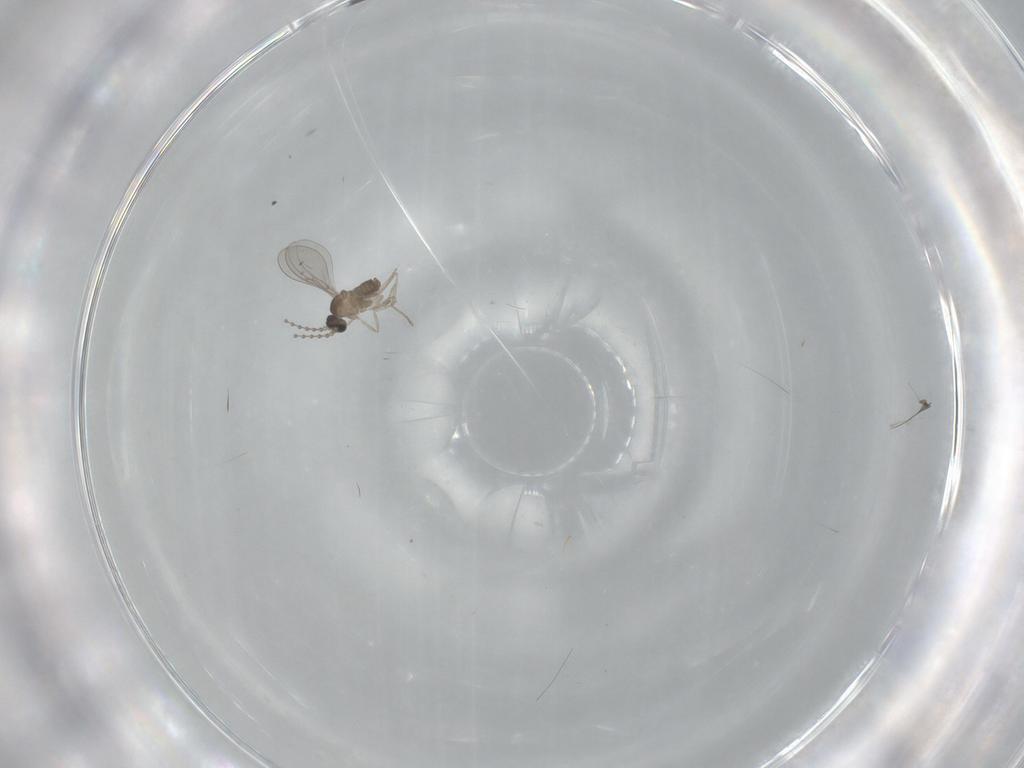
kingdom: Animalia
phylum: Arthropoda
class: Insecta
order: Diptera
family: Cecidomyiidae
